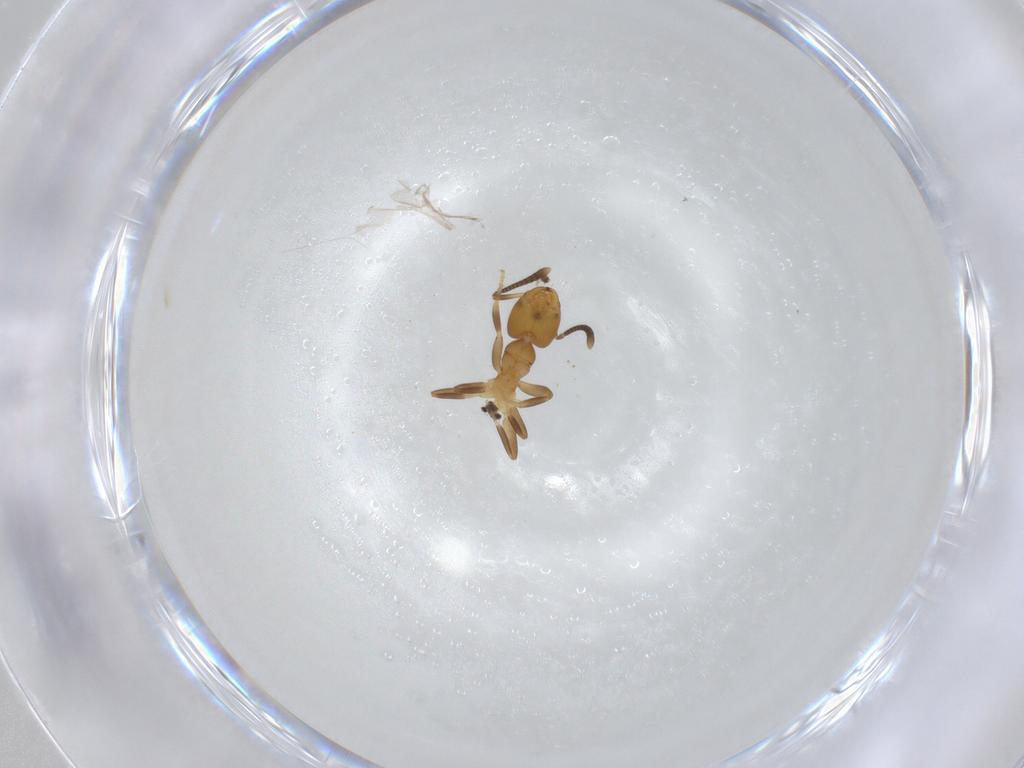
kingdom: Animalia
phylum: Arthropoda
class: Insecta
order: Hymenoptera
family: Formicidae
